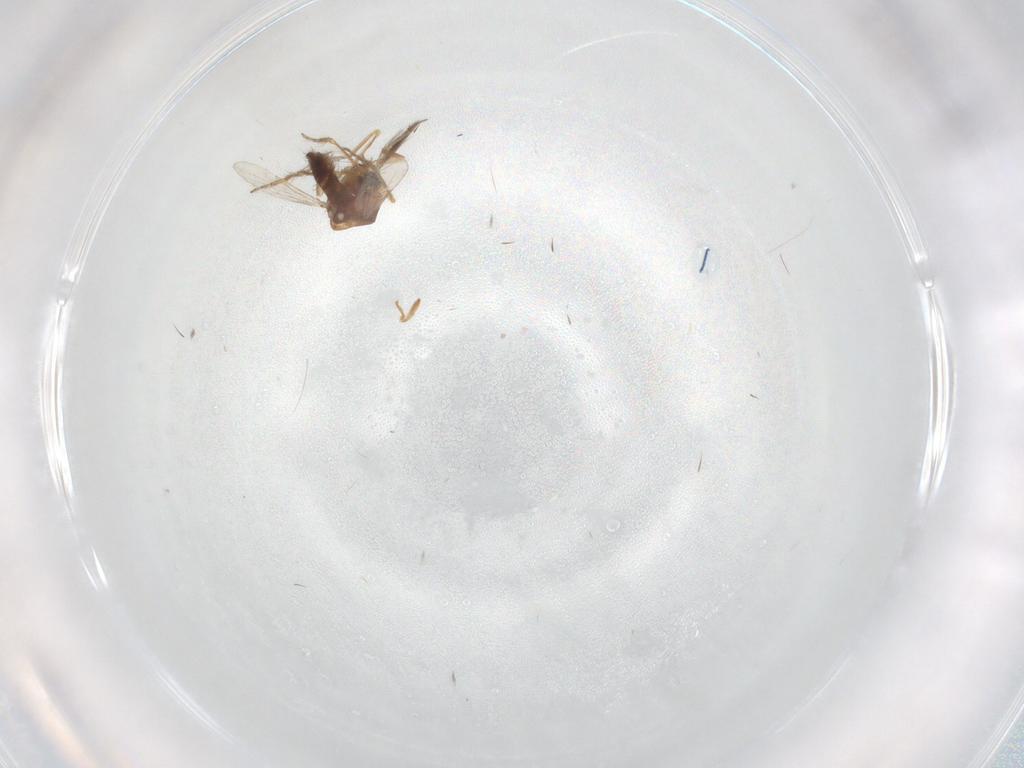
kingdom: Animalia
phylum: Arthropoda
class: Insecta
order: Diptera
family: Ceratopogonidae
